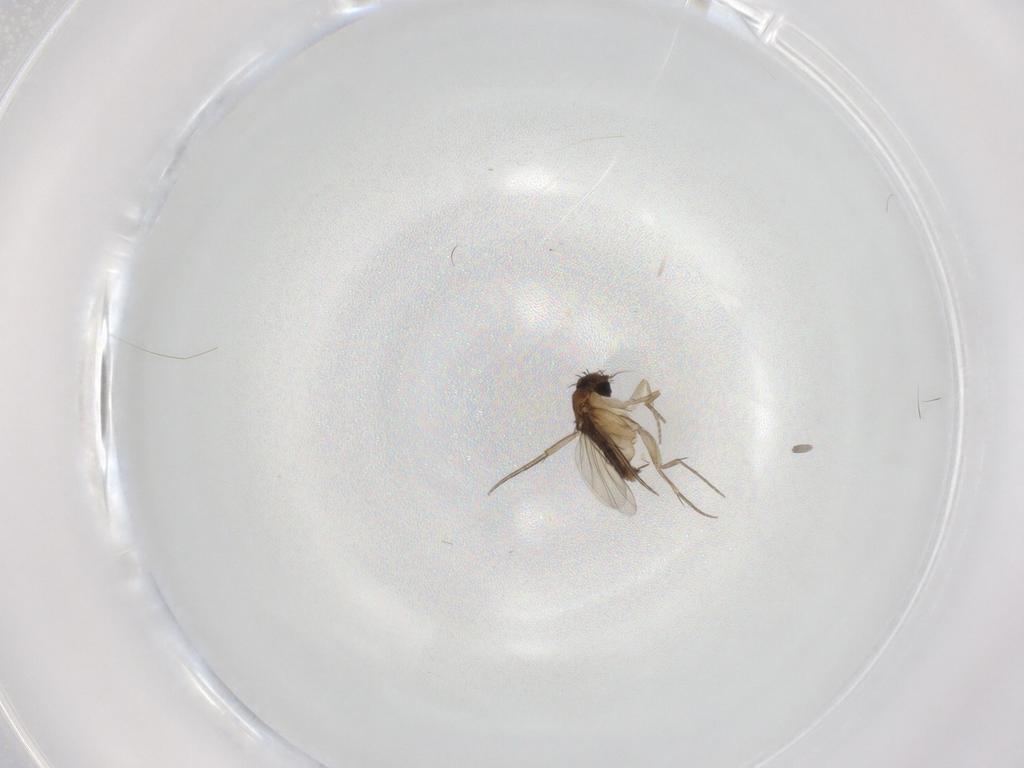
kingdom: Animalia
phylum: Arthropoda
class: Insecta
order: Diptera
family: Phoridae
